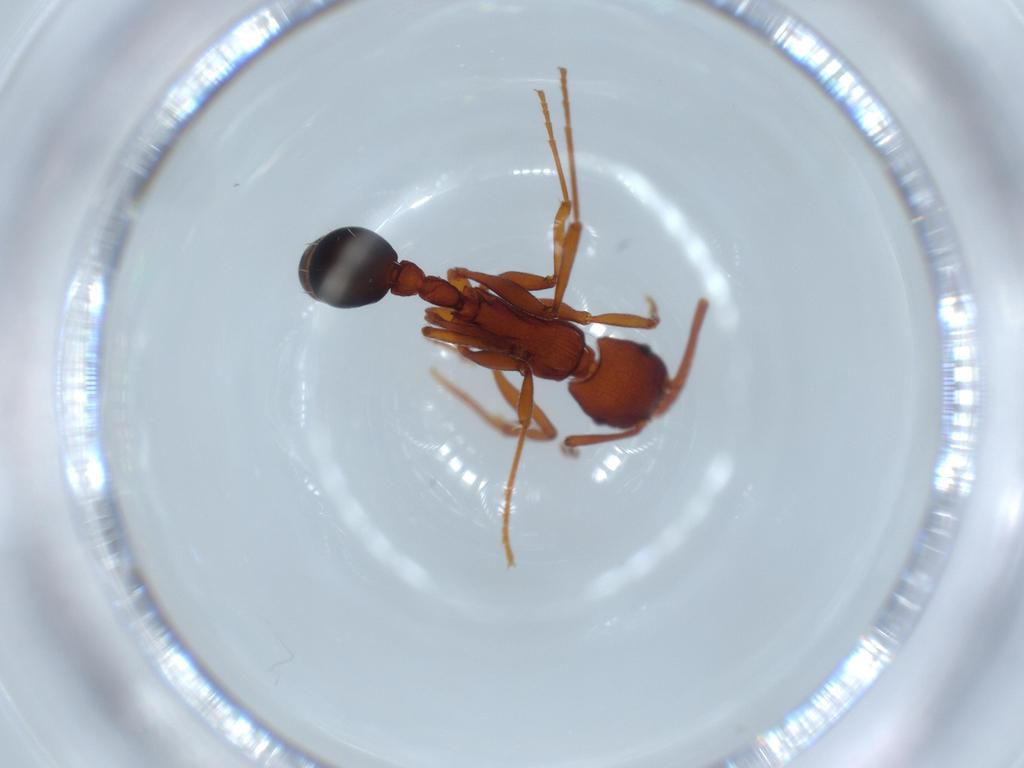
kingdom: Animalia
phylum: Arthropoda
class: Insecta
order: Hymenoptera
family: Formicidae
